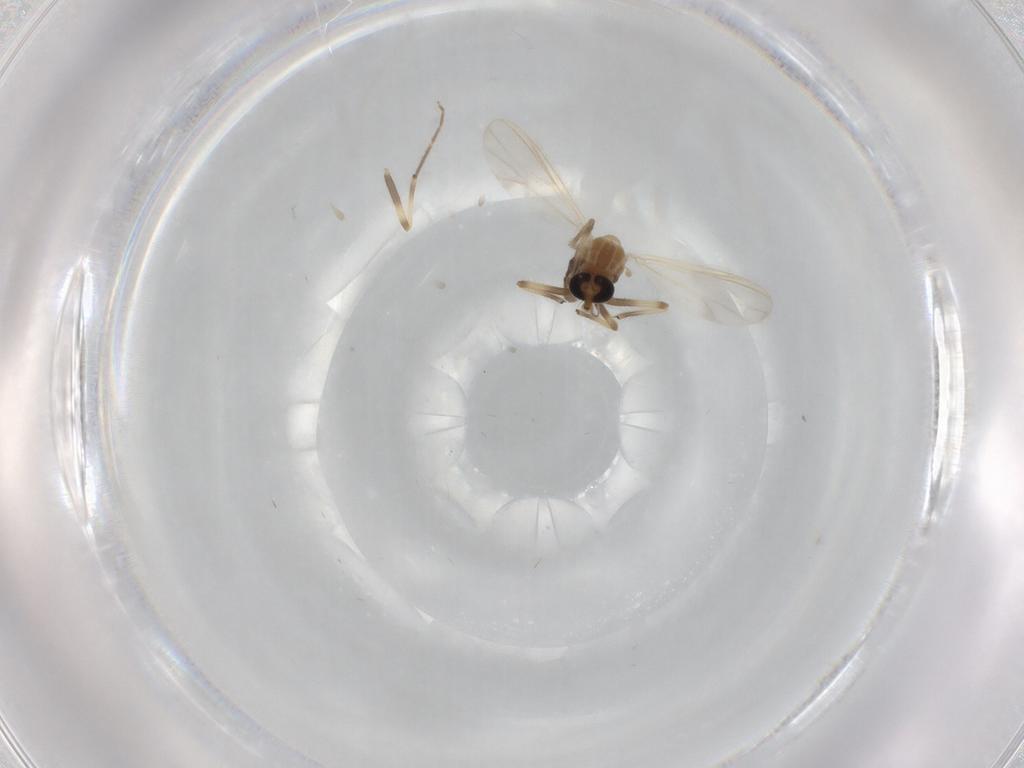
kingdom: Animalia
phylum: Arthropoda
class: Insecta
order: Diptera
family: Chironomidae
